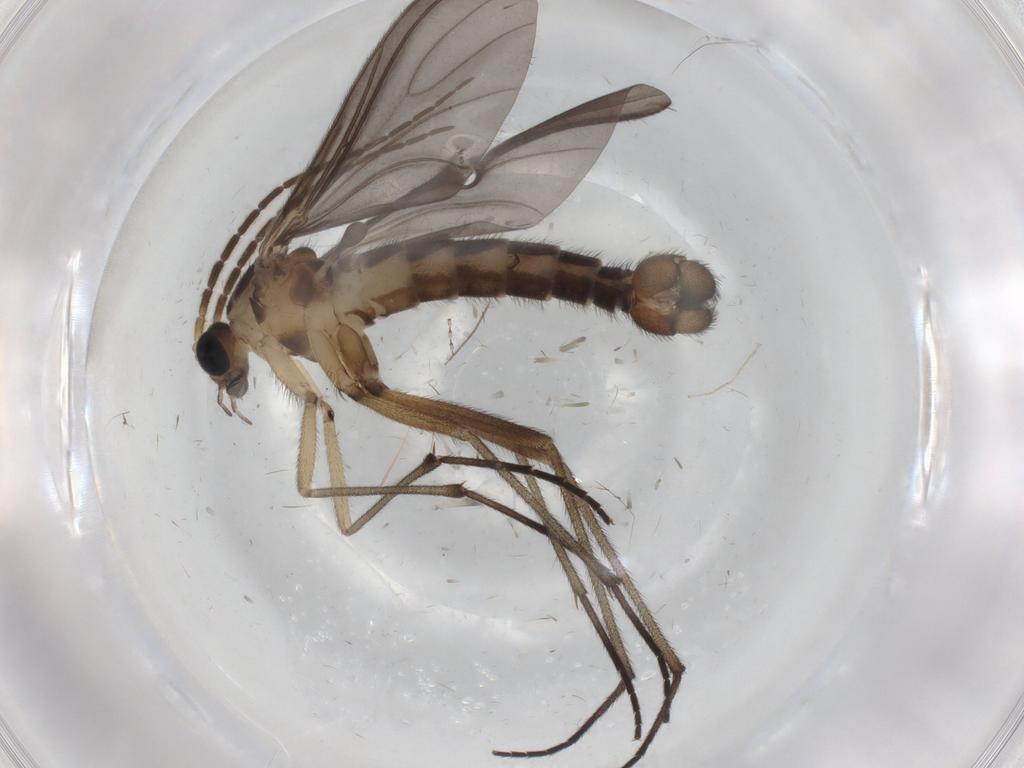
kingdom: Animalia
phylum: Arthropoda
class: Insecta
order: Diptera
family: Chironomidae
